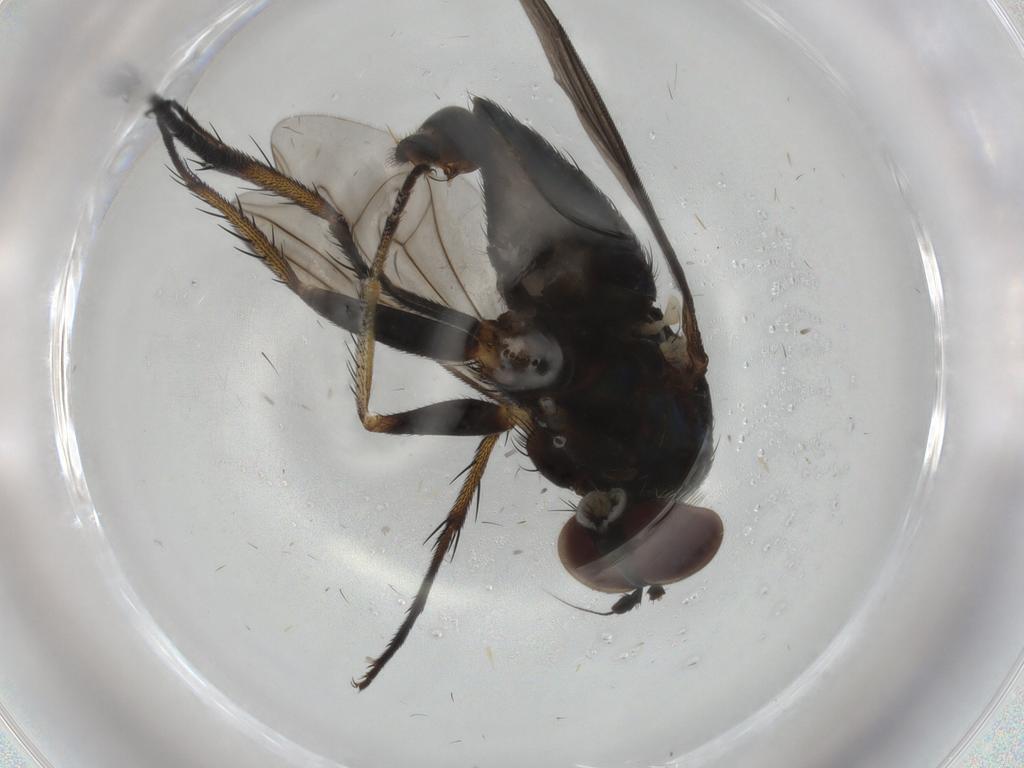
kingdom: Animalia
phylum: Arthropoda
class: Insecta
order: Diptera
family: Dolichopodidae
